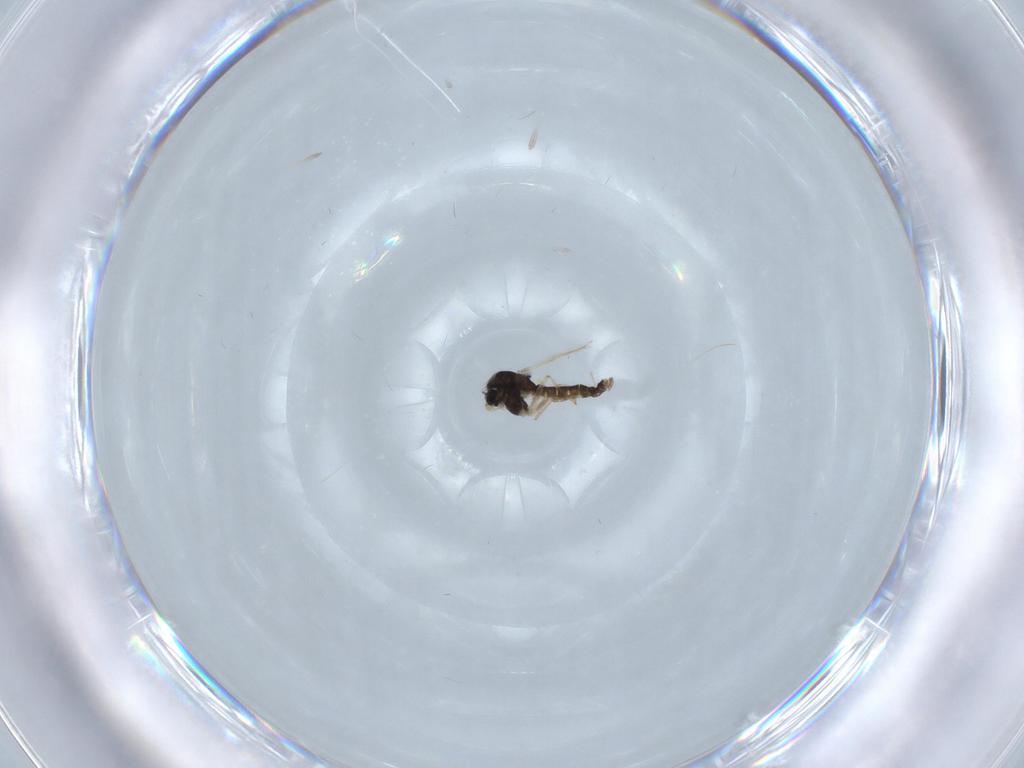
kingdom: Animalia
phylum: Arthropoda
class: Insecta
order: Diptera
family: Chironomidae
